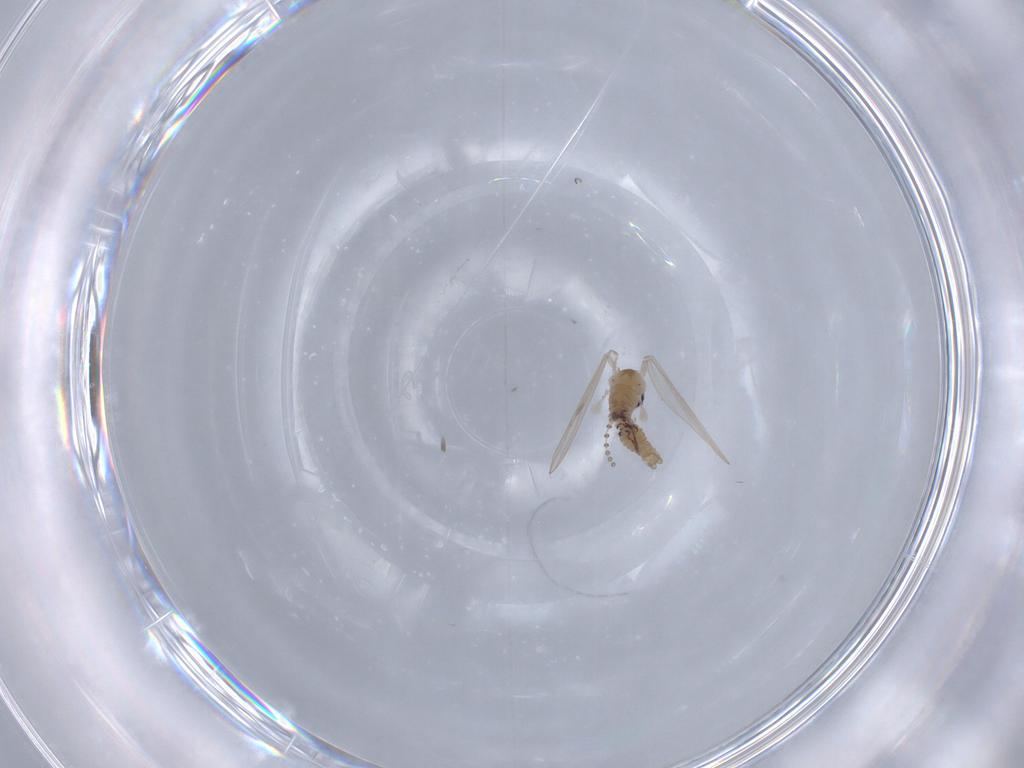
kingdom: Animalia
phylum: Arthropoda
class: Insecta
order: Diptera
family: Psychodidae
